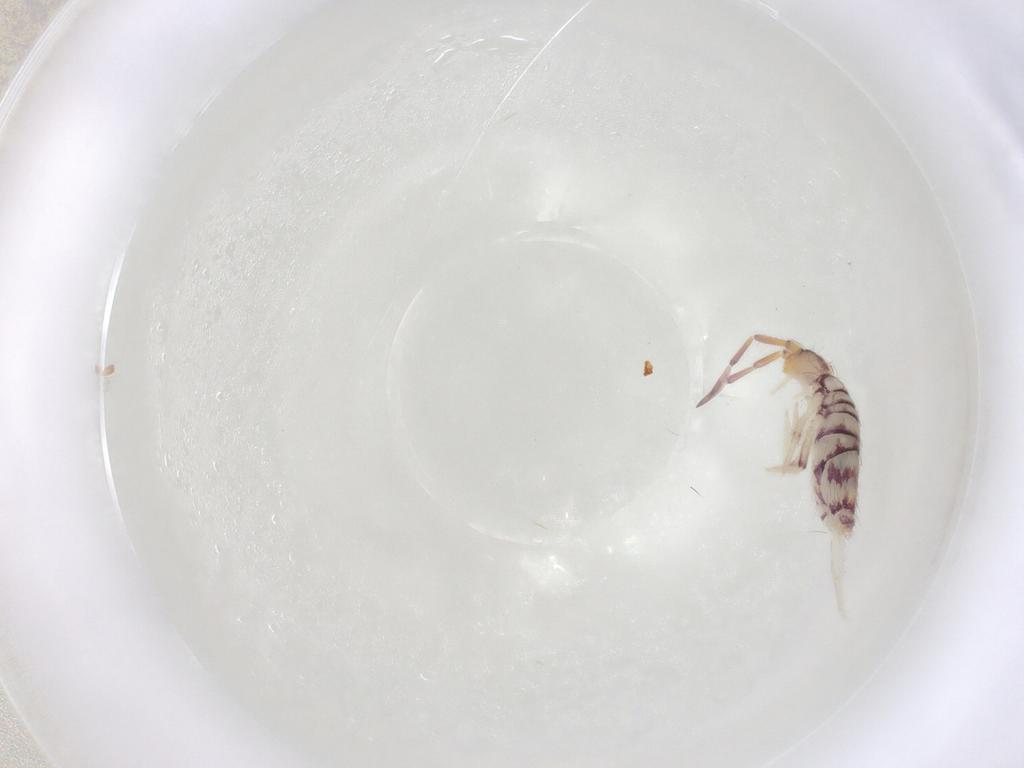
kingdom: Animalia
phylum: Arthropoda
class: Collembola
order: Entomobryomorpha
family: Entomobryidae
